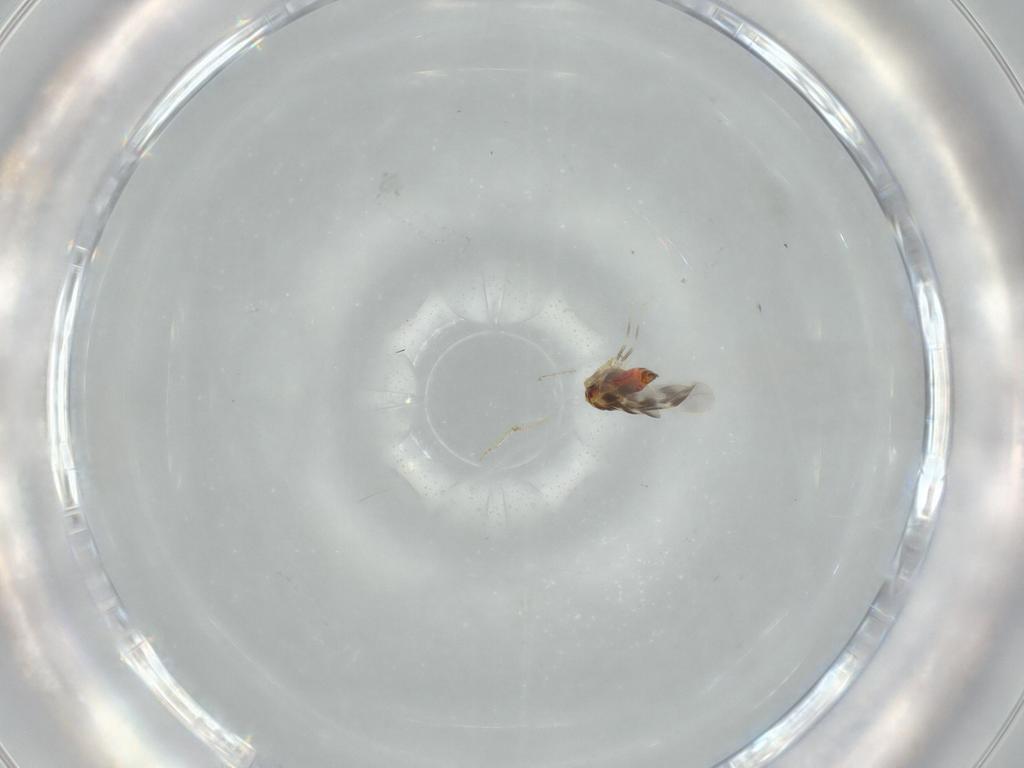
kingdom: Animalia
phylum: Arthropoda
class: Insecta
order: Hemiptera
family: Aleyrodidae
